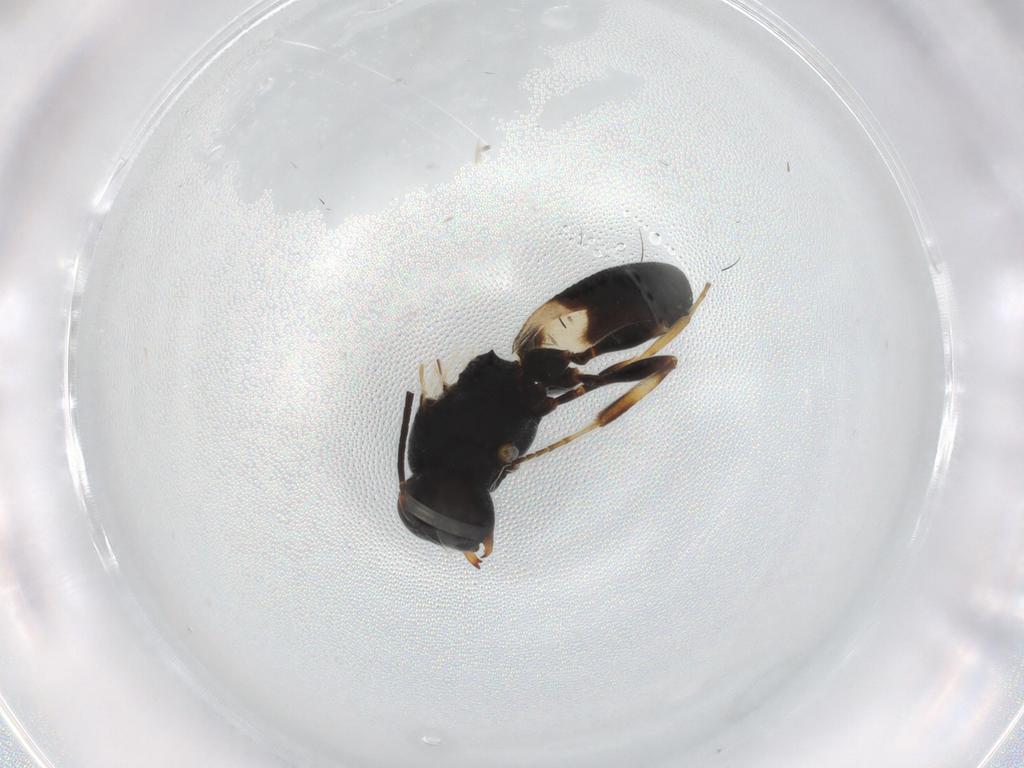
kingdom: Animalia
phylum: Arthropoda
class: Insecta
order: Hymenoptera
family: Braconidae
